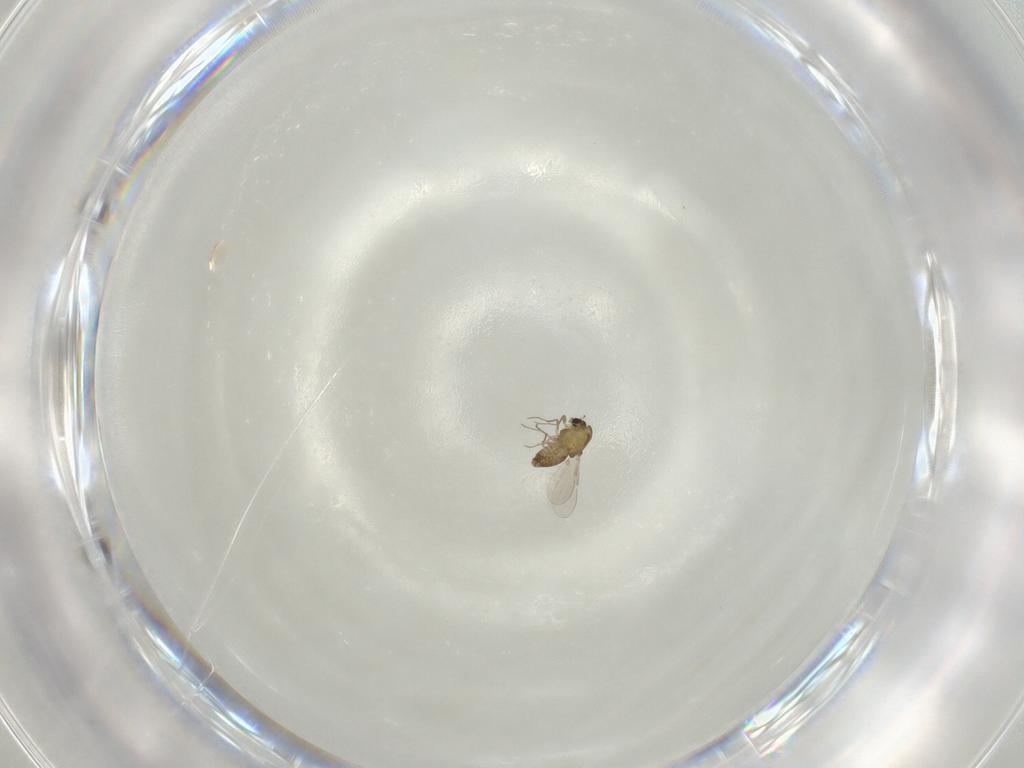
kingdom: Animalia
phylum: Arthropoda
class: Insecta
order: Diptera
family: Chironomidae
